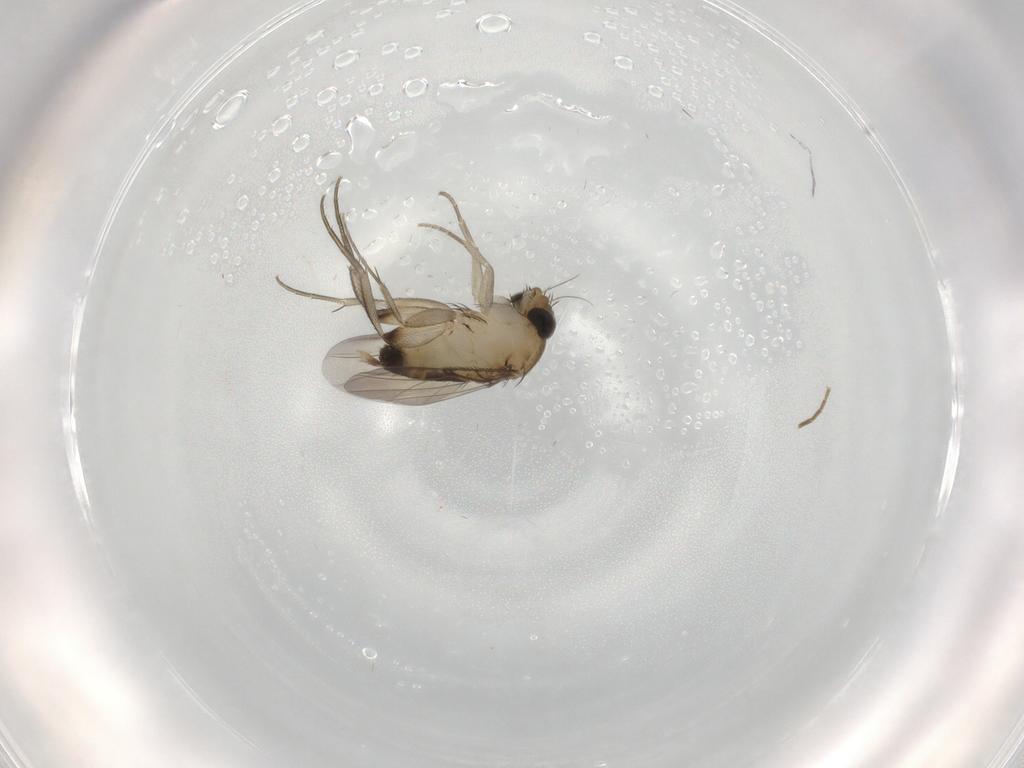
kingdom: Animalia
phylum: Arthropoda
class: Insecta
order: Diptera
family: Phoridae
